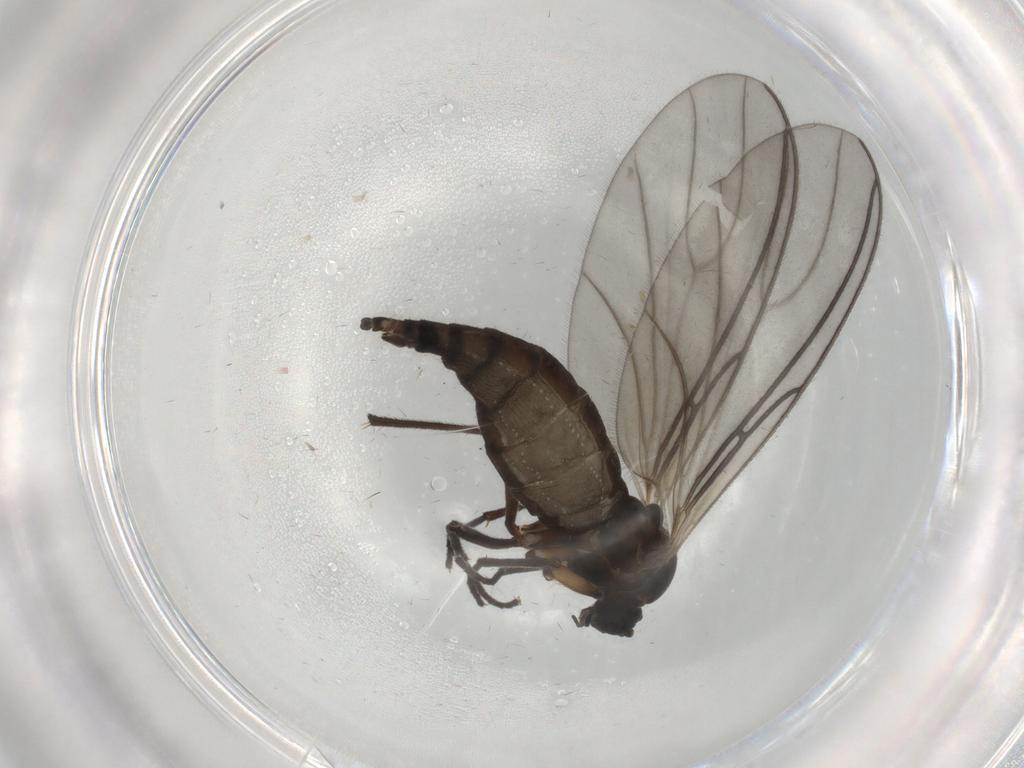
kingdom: Animalia
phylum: Arthropoda
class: Insecta
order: Diptera
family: Sciaridae
